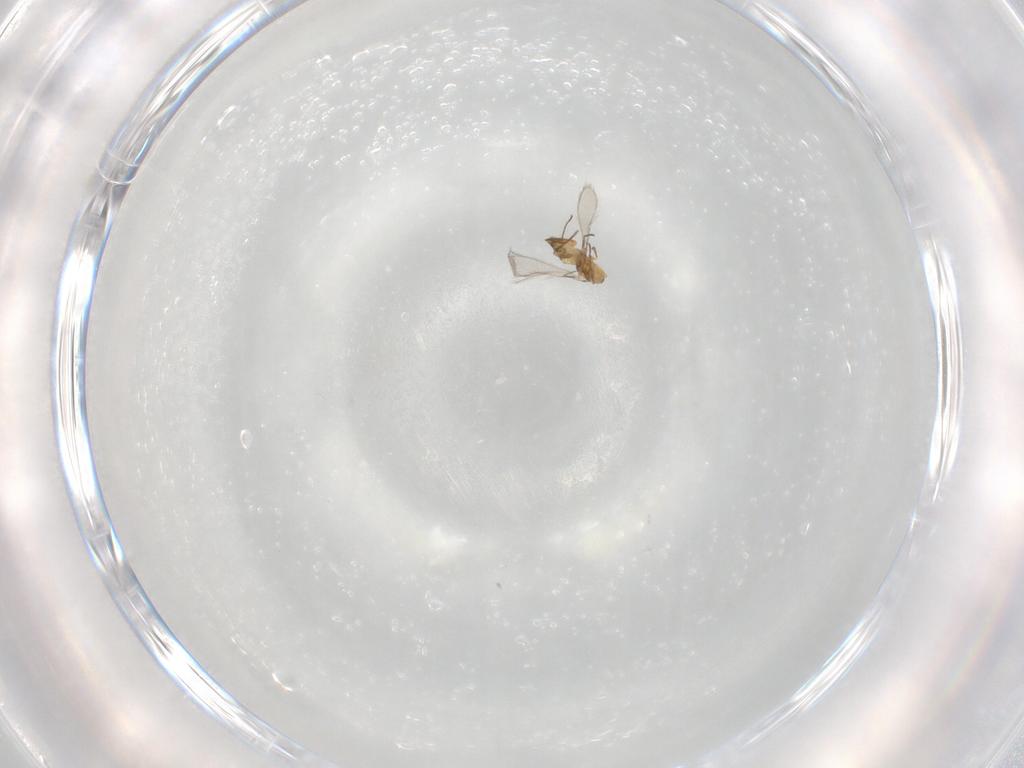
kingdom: Animalia
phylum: Arthropoda
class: Insecta
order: Hymenoptera
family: Mymaridae
